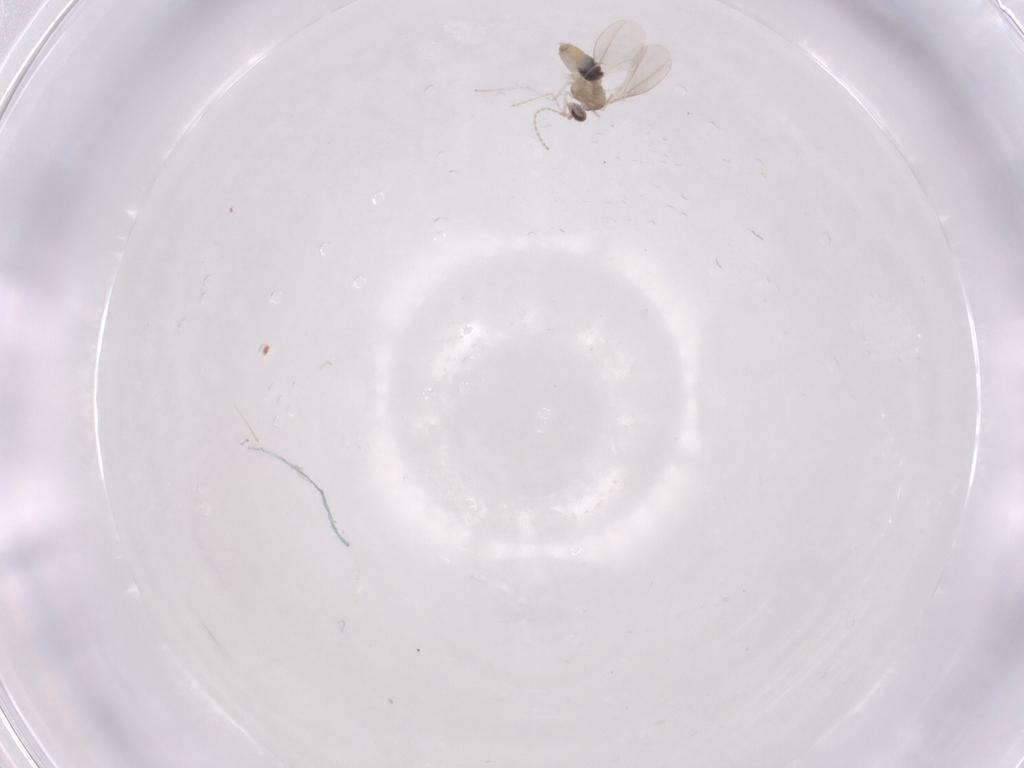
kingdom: Animalia
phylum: Arthropoda
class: Insecta
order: Diptera
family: Cecidomyiidae
